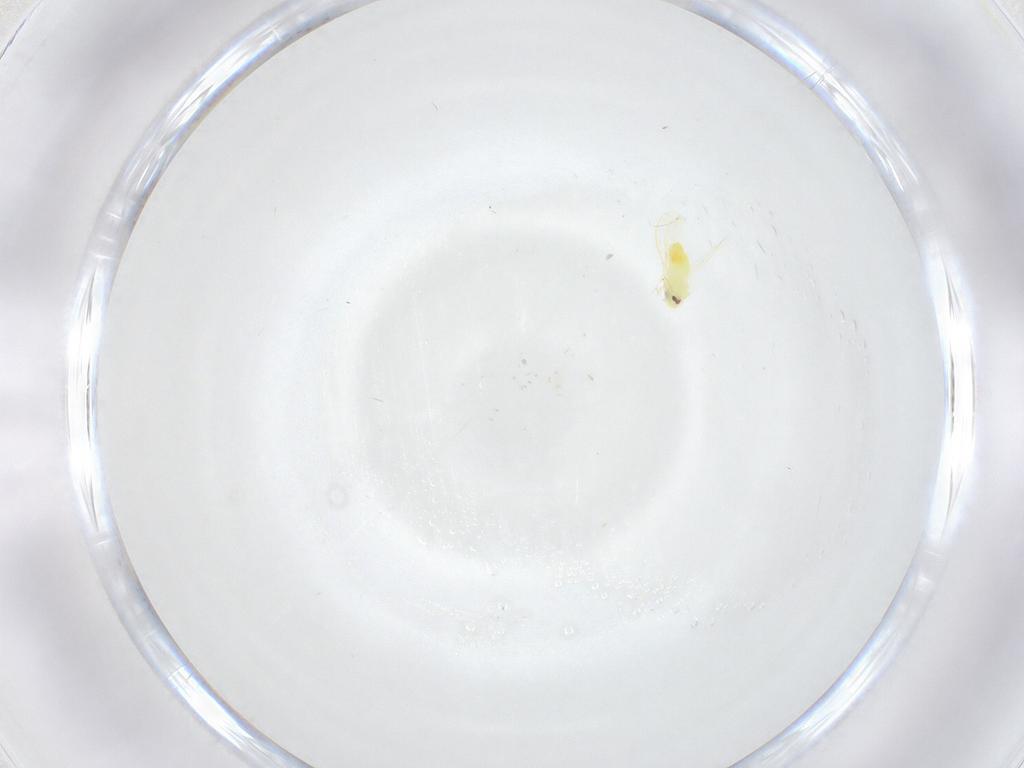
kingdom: Animalia
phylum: Arthropoda
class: Insecta
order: Hemiptera
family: Aleyrodidae
